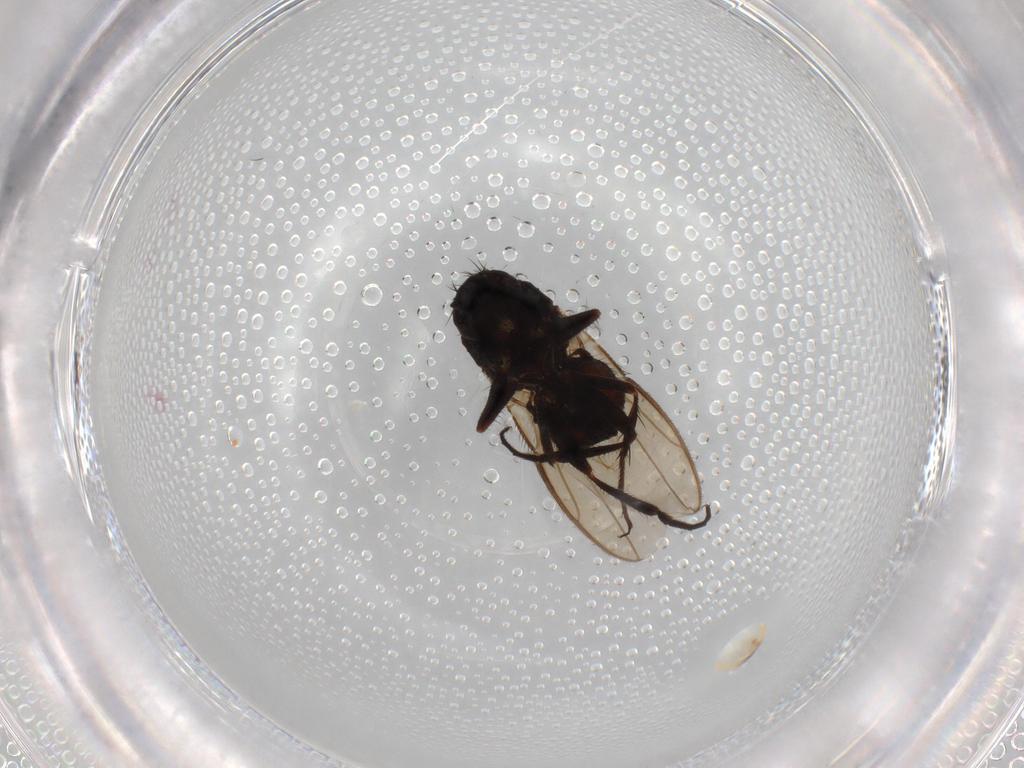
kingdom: Animalia
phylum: Arthropoda
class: Insecta
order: Diptera
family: Sphaeroceridae
